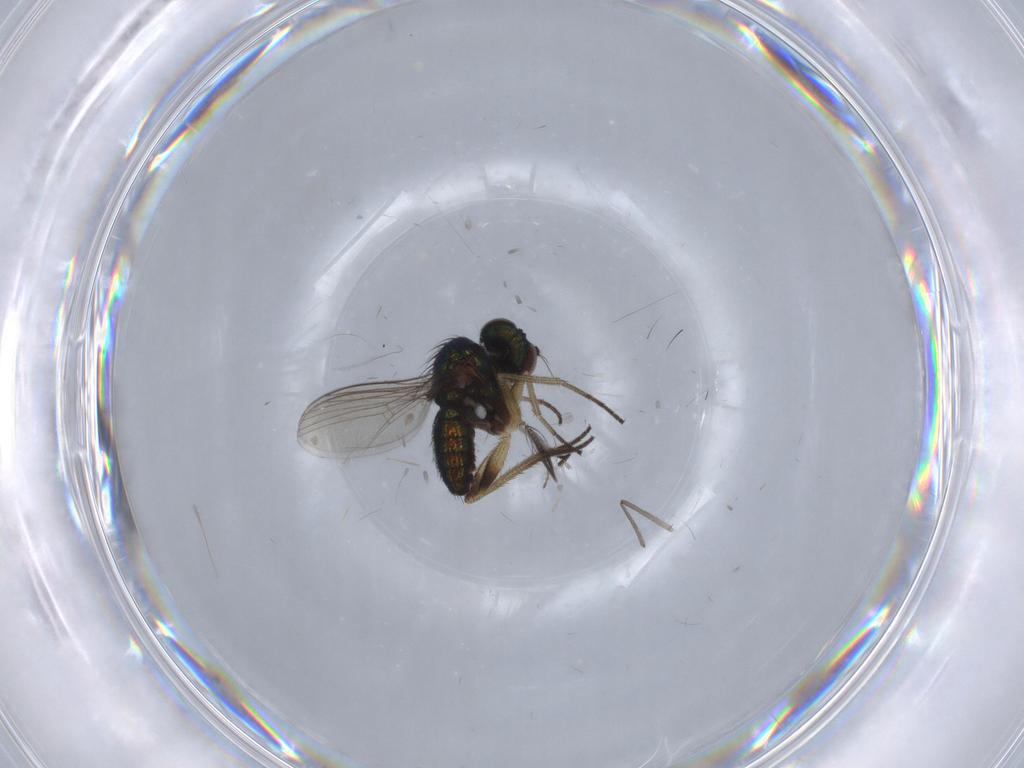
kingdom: Animalia
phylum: Arthropoda
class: Insecta
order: Diptera
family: Dolichopodidae
